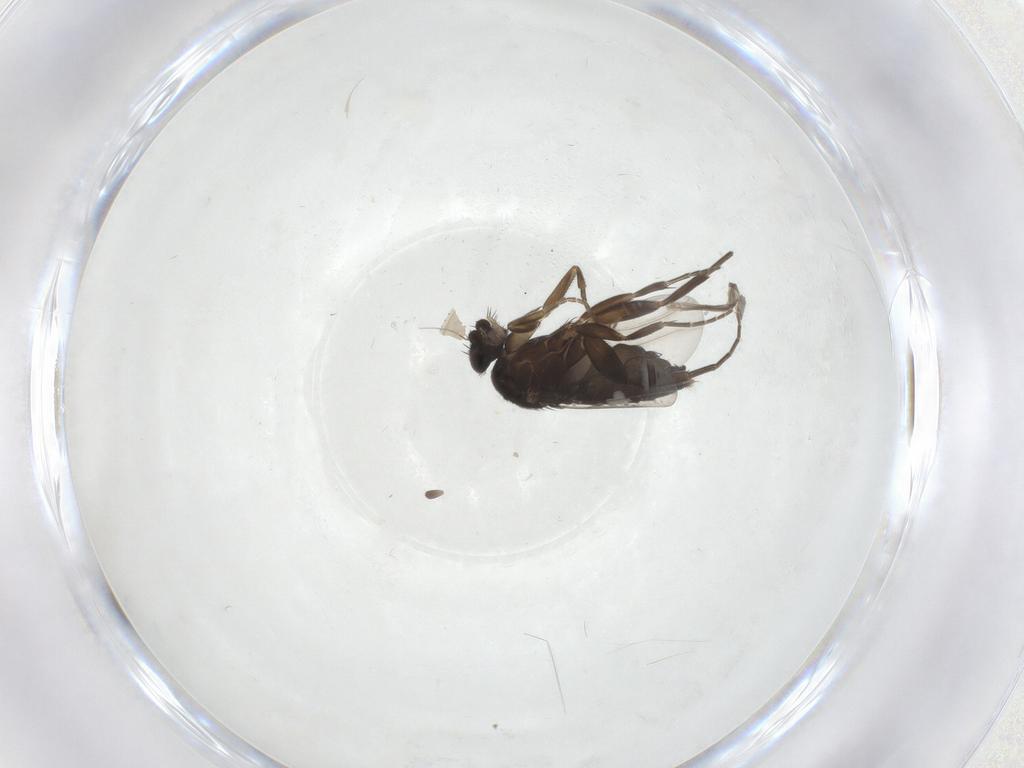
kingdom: Animalia
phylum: Arthropoda
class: Insecta
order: Diptera
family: Phoridae
